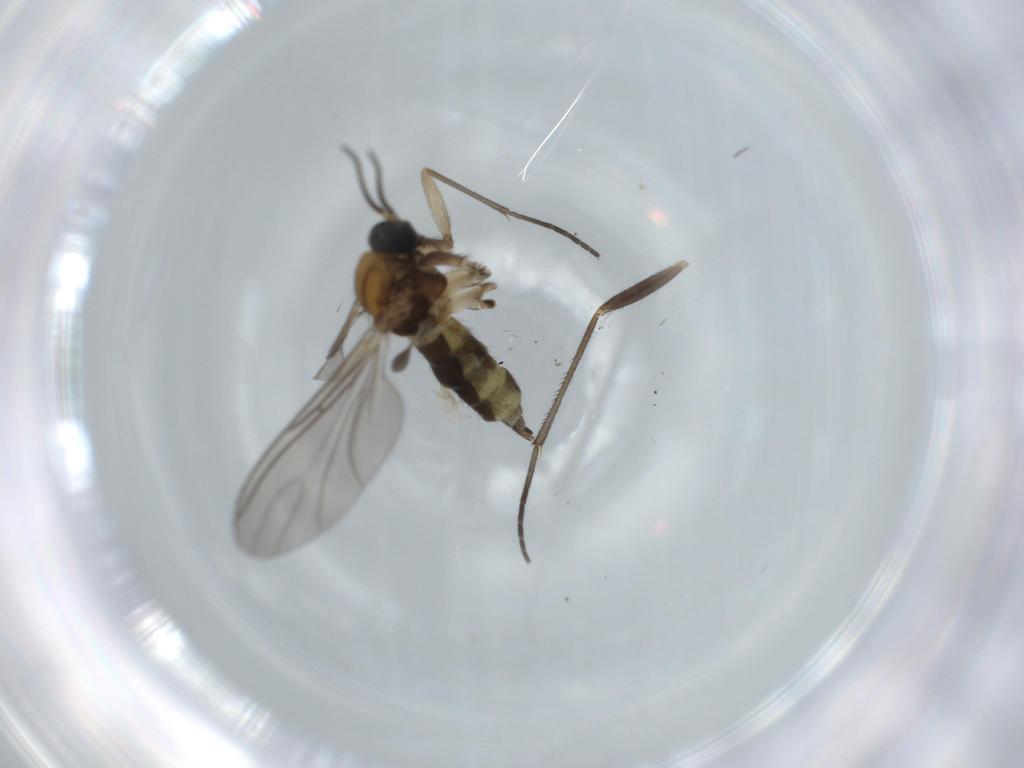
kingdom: Animalia
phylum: Arthropoda
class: Insecta
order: Diptera
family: Sciaridae
